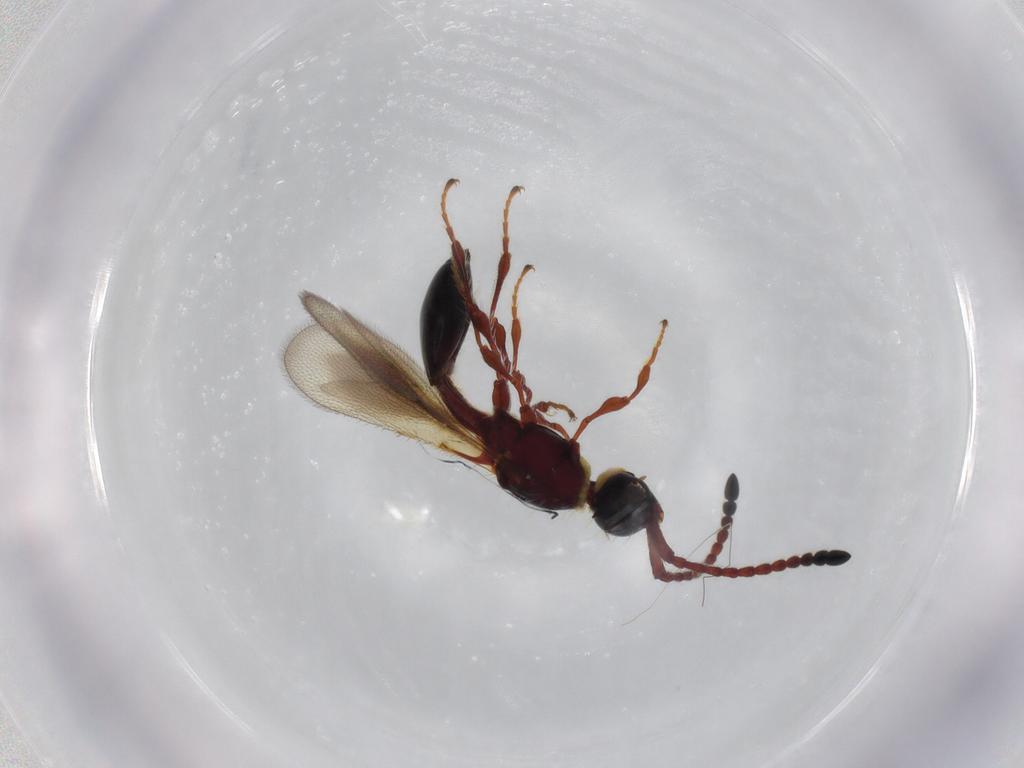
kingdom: Animalia
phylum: Arthropoda
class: Insecta
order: Hymenoptera
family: Diapriidae
